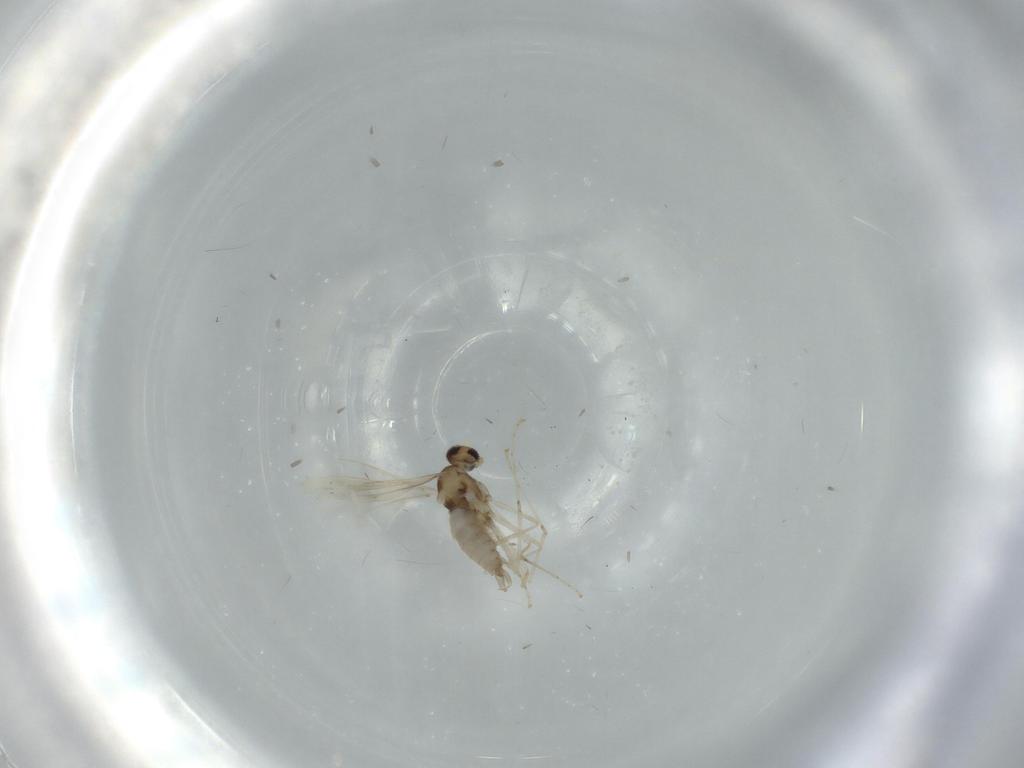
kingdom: Animalia
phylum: Arthropoda
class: Insecta
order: Diptera
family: Cecidomyiidae
